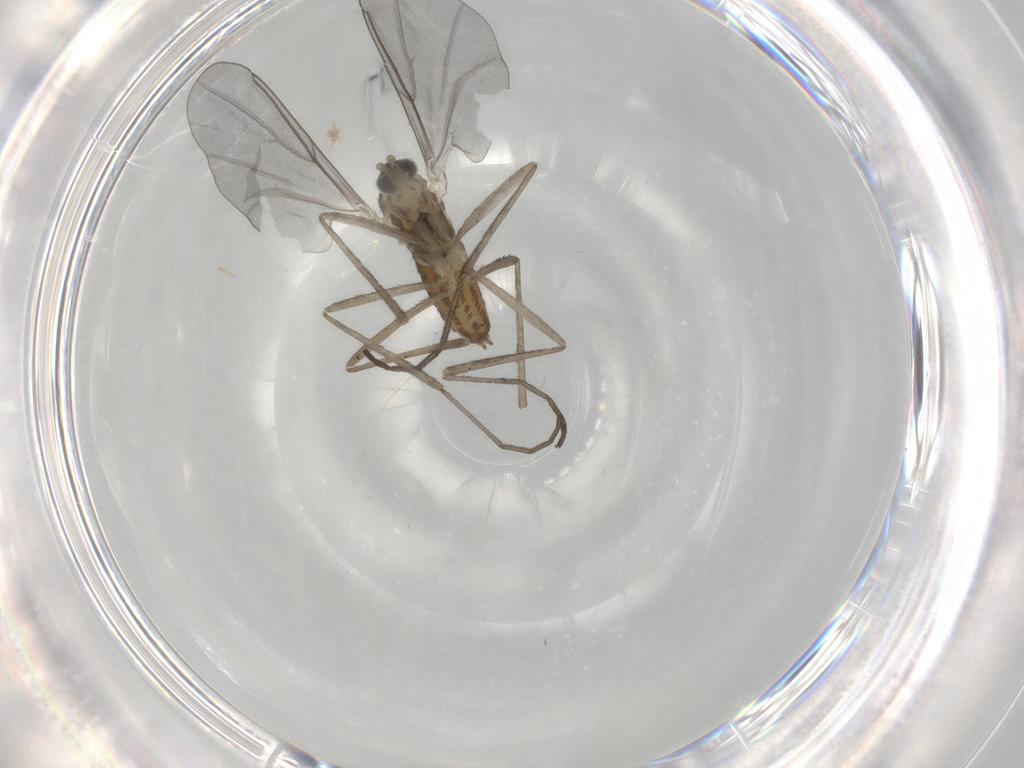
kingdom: Animalia
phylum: Arthropoda
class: Insecta
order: Diptera
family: Cecidomyiidae
